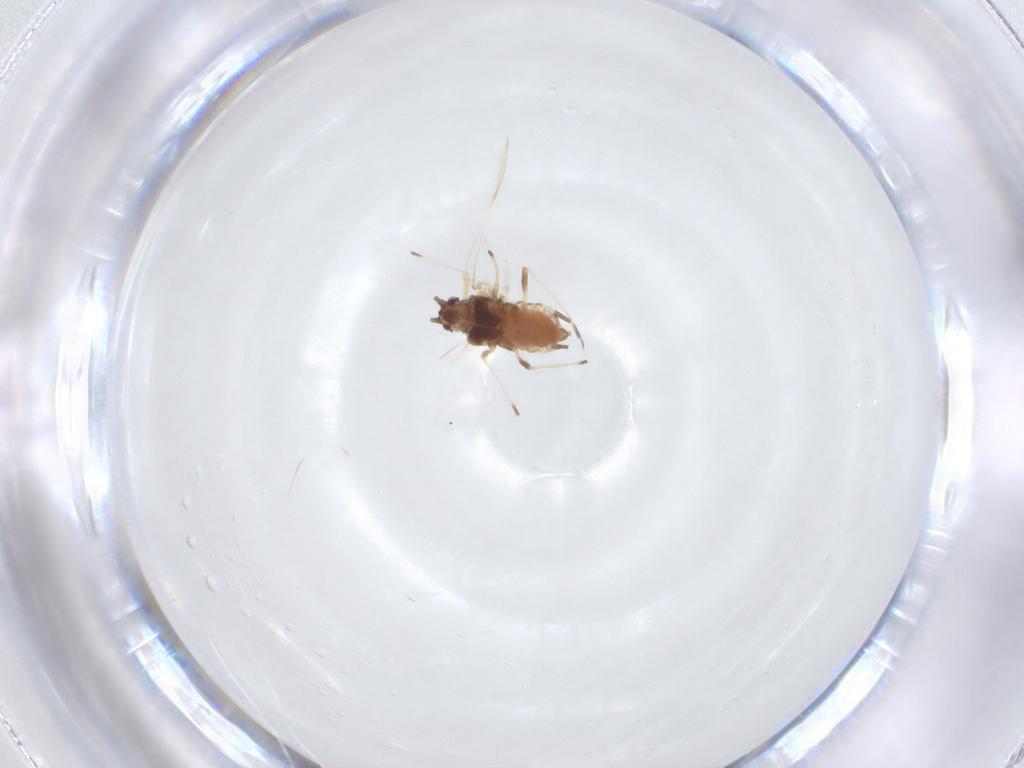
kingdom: Animalia
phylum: Arthropoda
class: Insecta
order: Hemiptera
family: Aphididae
